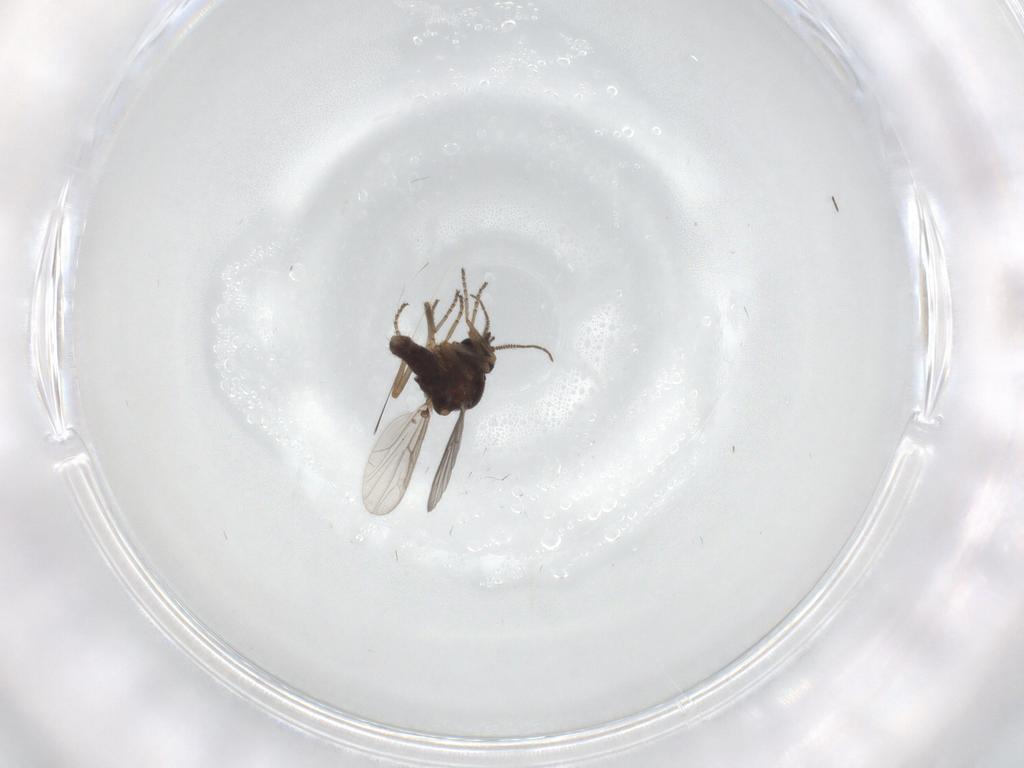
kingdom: Animalia
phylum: Arthropoda
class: Insecta
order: Diptera
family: Ceratopogonidae
